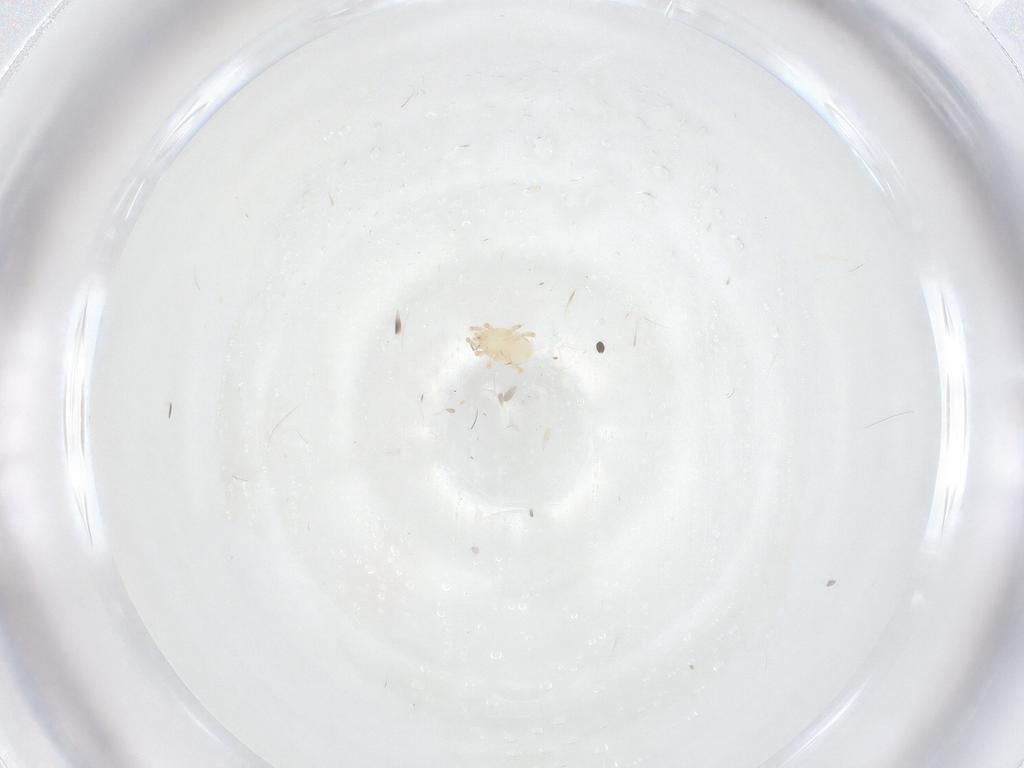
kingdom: Animalia
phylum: Arthropoda
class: Arachnida
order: Mesostigmata
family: Melicharidae
